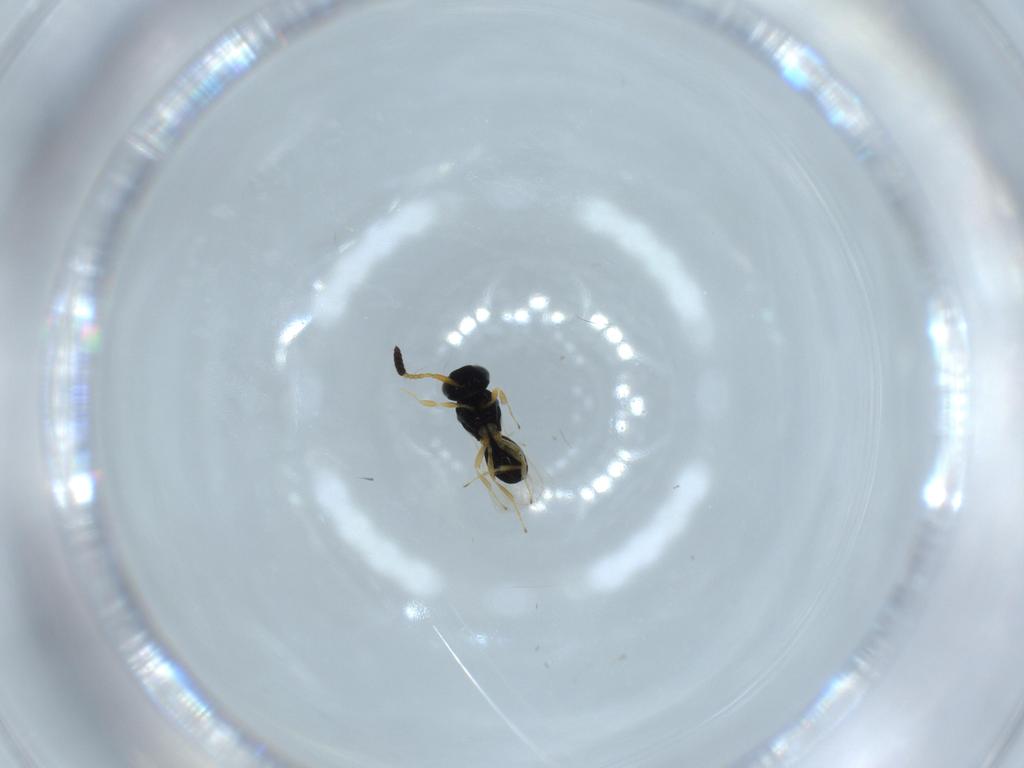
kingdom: Animalia
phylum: Arthropoda
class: Insecta
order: Hymenoptera
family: Scelionidae
